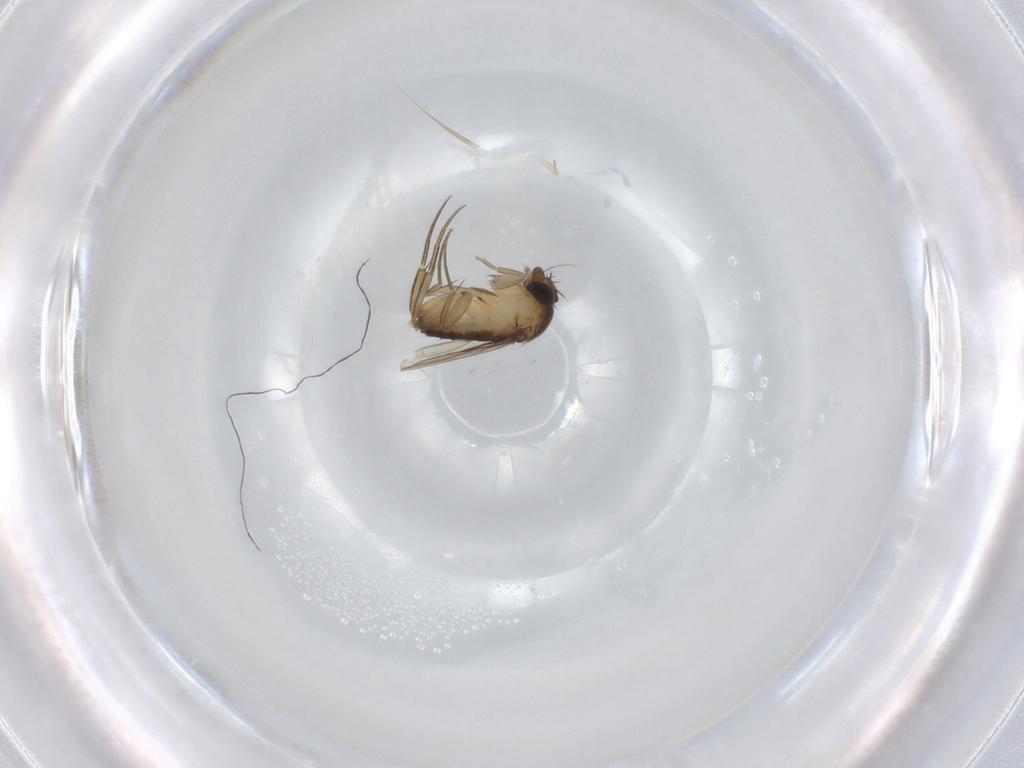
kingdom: Animalia
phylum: Arthropoda
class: Insecta
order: Diptera
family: Phoridae
